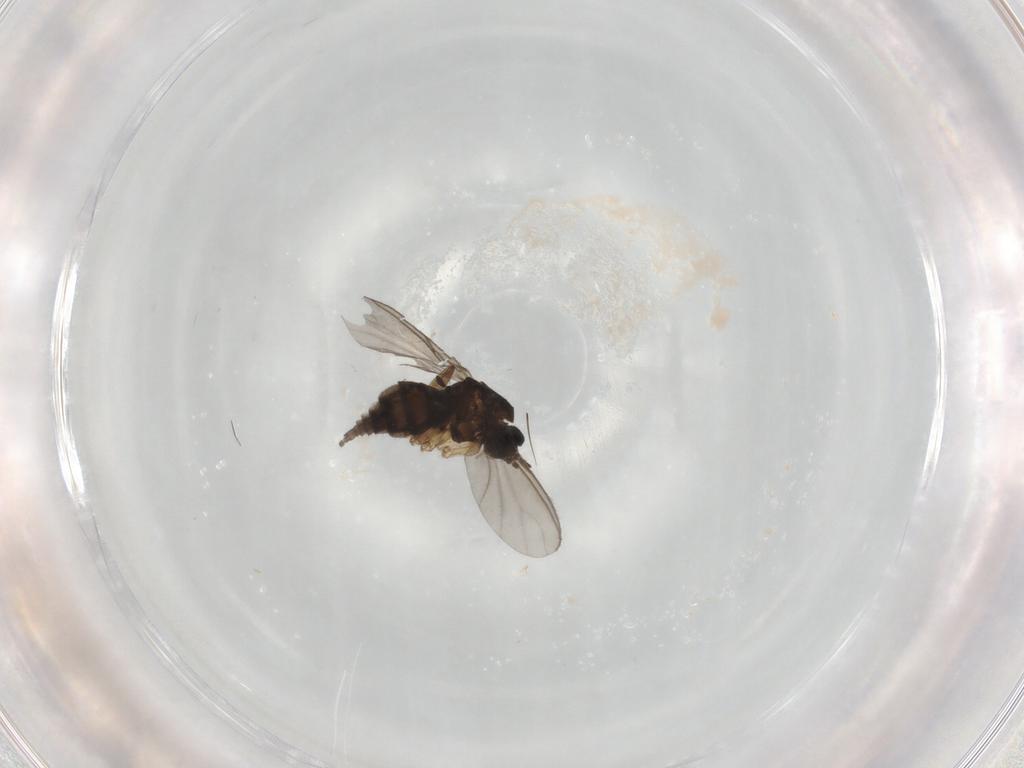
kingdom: Animalia
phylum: Arthropoda
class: Insecta
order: Diptera
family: Sciaridae
